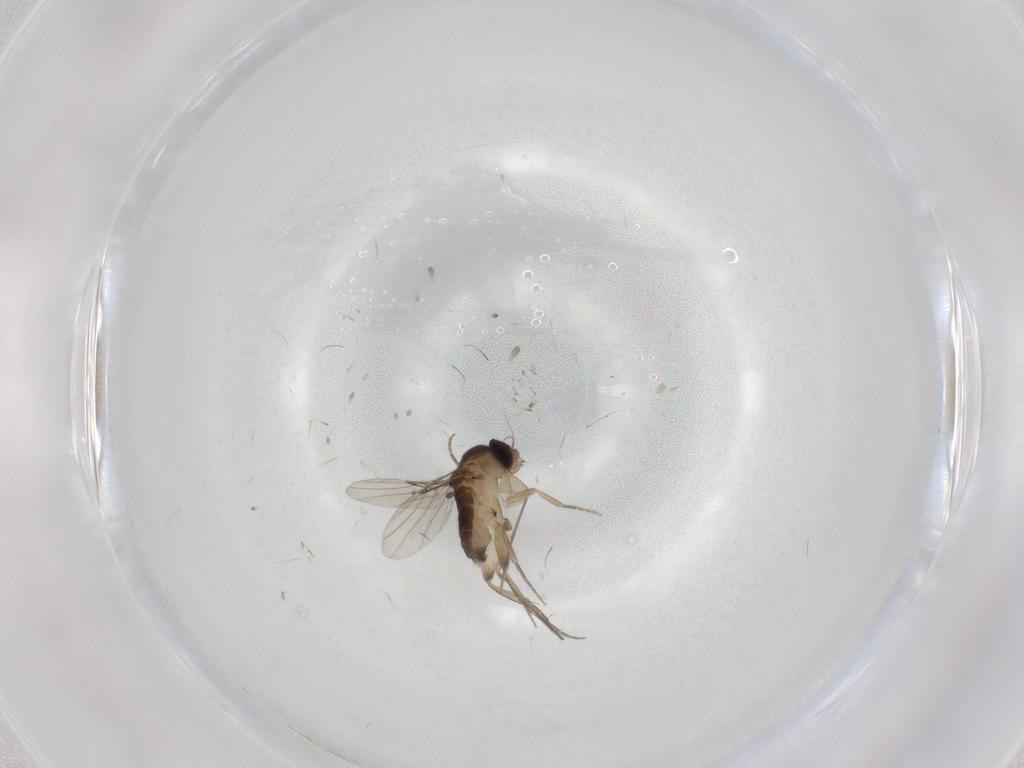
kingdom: Animalia
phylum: Arthropoda
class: Insecta
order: Diptera
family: Phoridae
